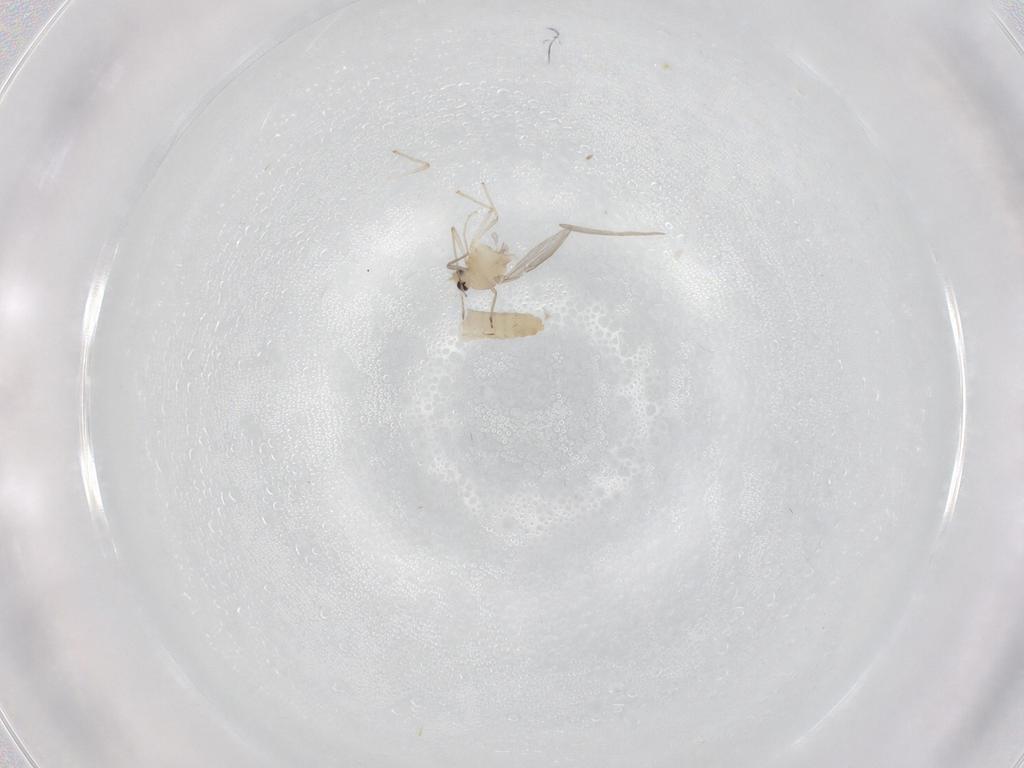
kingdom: Animalia
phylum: Arthropoda
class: Insecta
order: Diptera
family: Chironomidae
